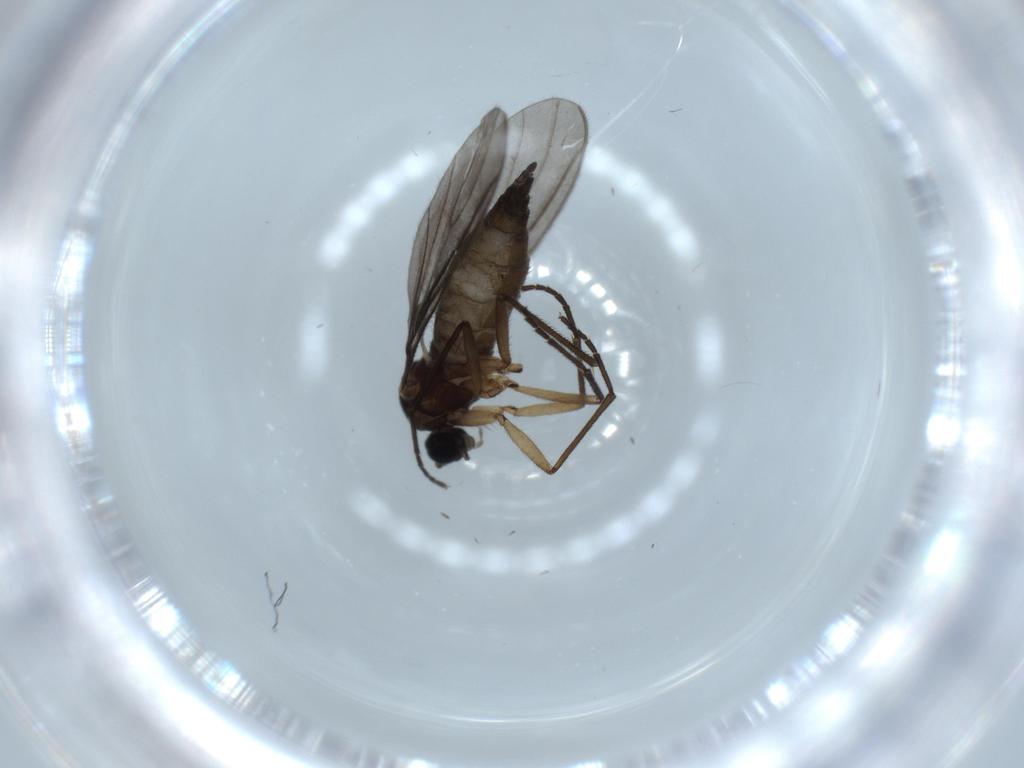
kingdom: Animalia
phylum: Arthropoda
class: Insecta
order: Diptera
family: Sciaridae
